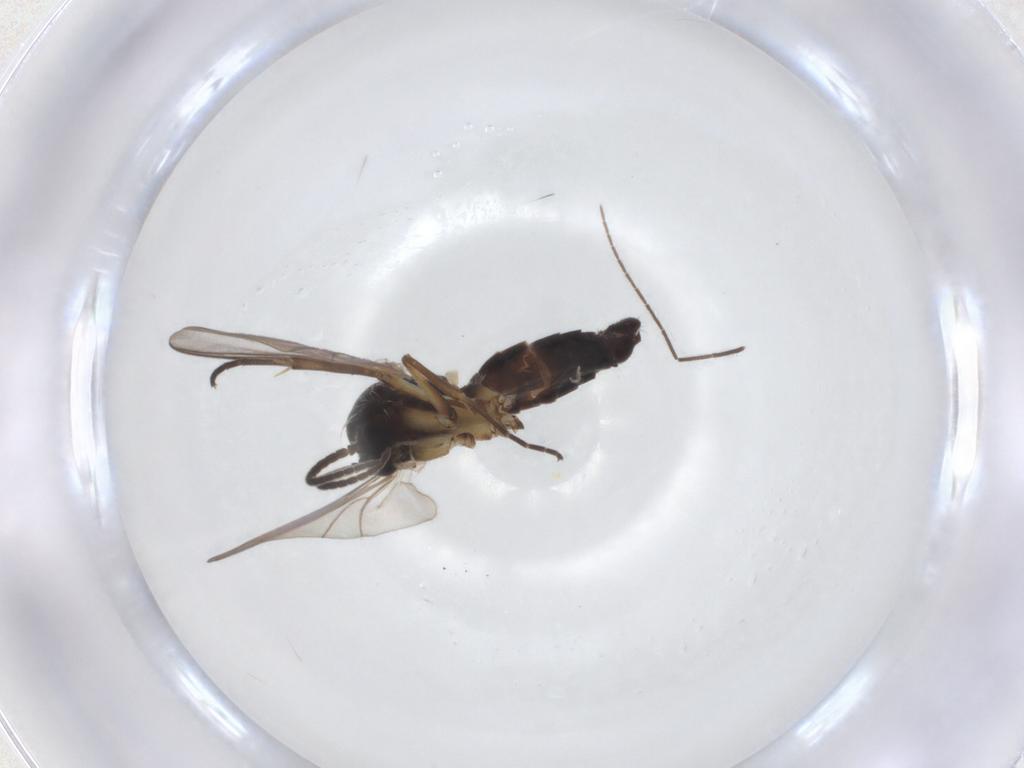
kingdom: Animalia
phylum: Arthropoda
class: Insecta
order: Diptera
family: Mycetophilidae
